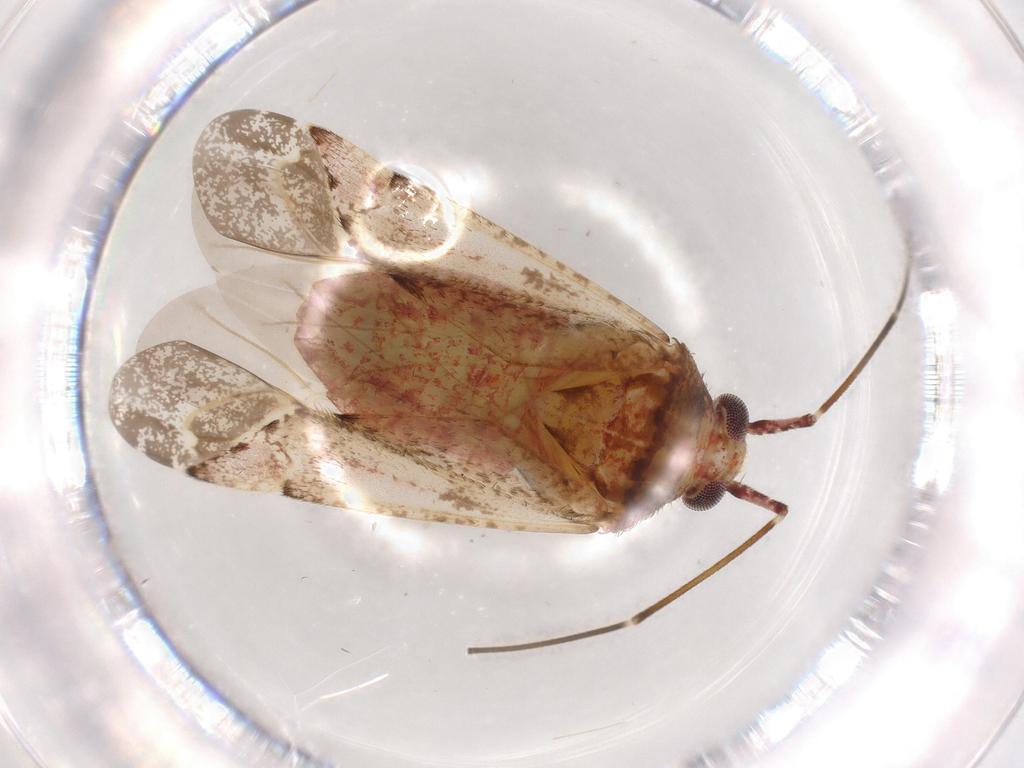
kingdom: Animalia
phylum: Arthropoda
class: Insecta
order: Hemiptera
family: Miridae
